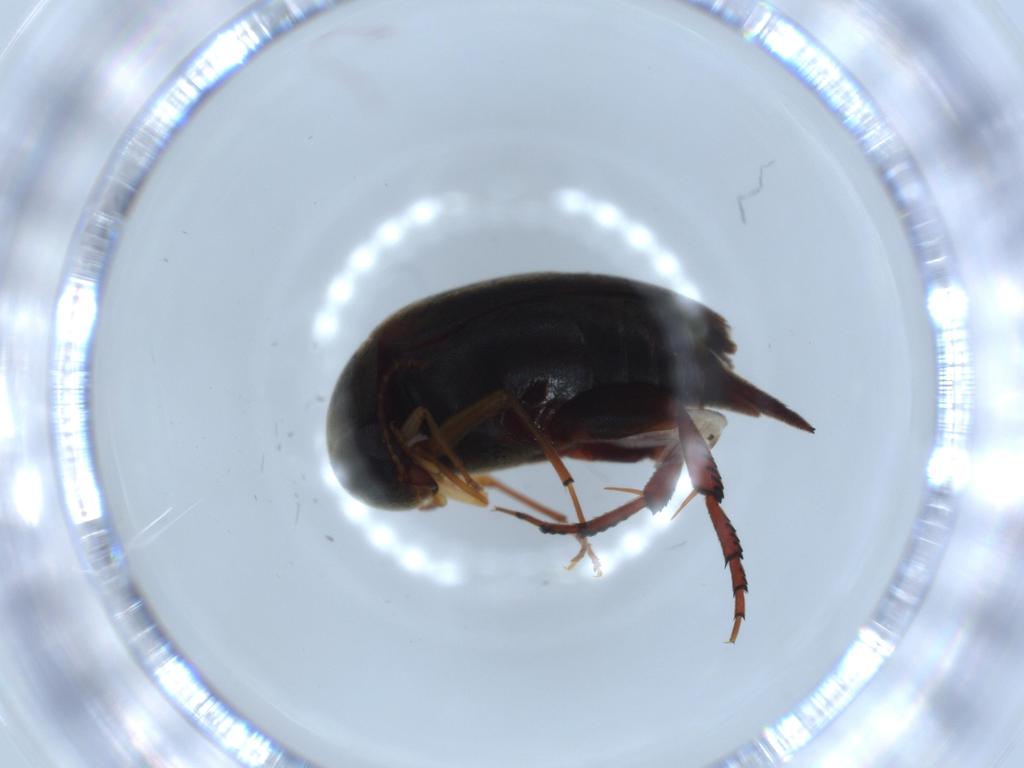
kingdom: Animalia
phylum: Arthropoda
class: Insecta
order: Coleoptera
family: Mordellidae
